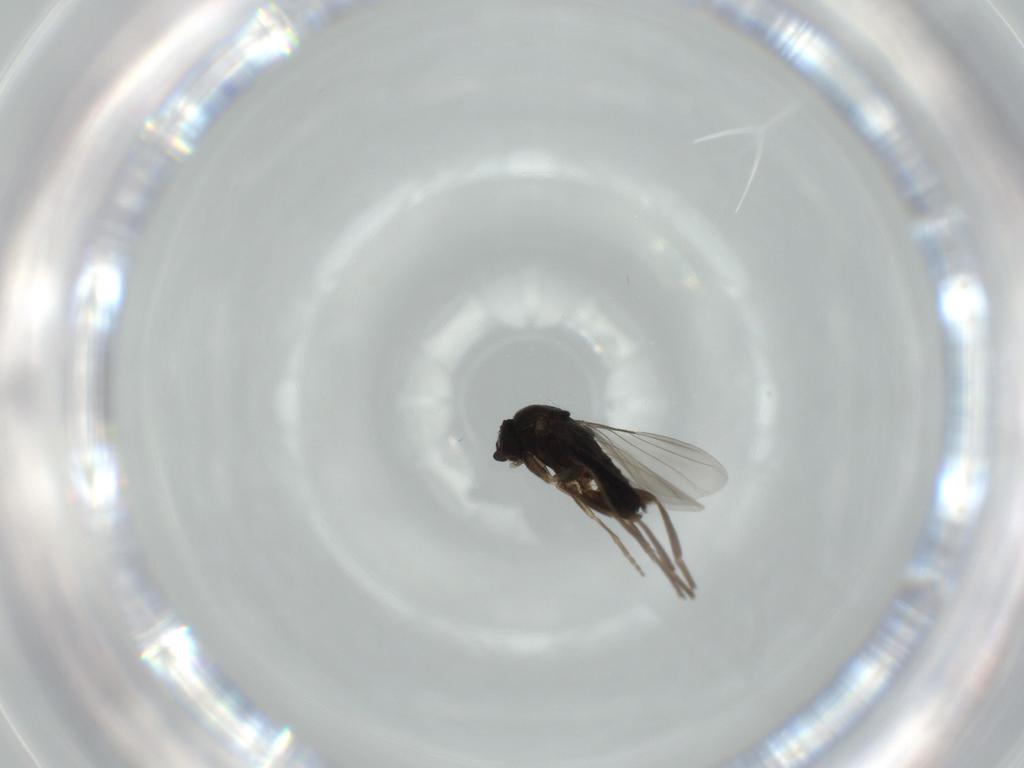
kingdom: Animalia
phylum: Arthropoda
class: Insecta
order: Diptera
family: Phoridae
